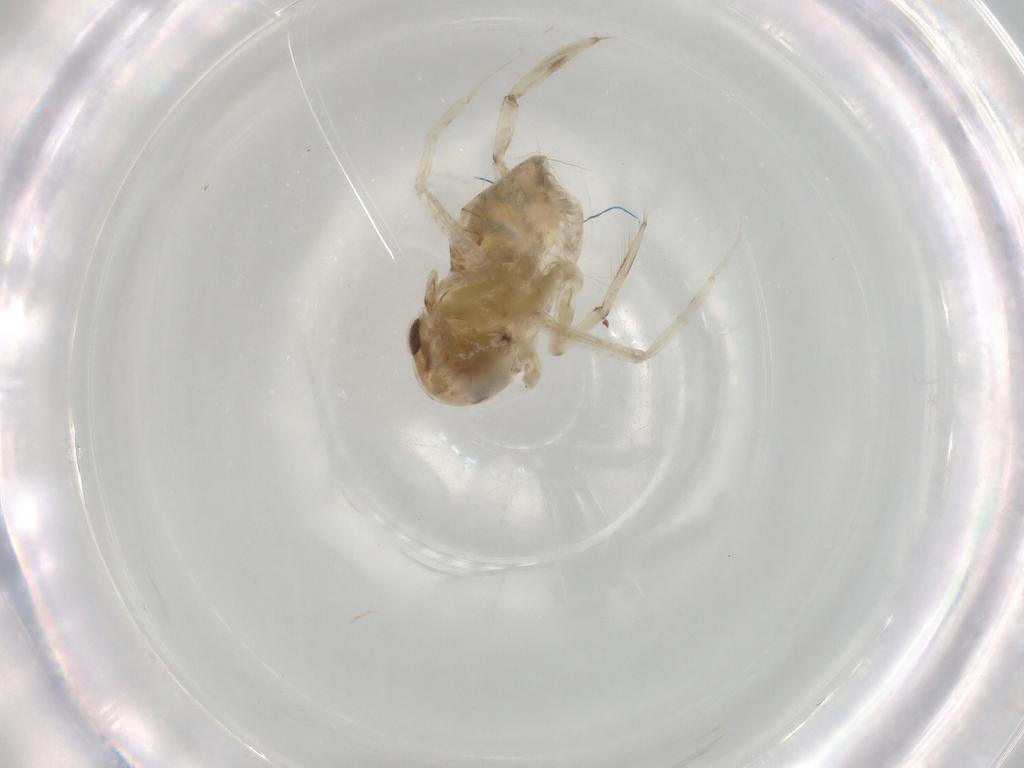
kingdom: Animalia
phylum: Arthropoda
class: Insecta
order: Hemiptera
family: Corixidae
